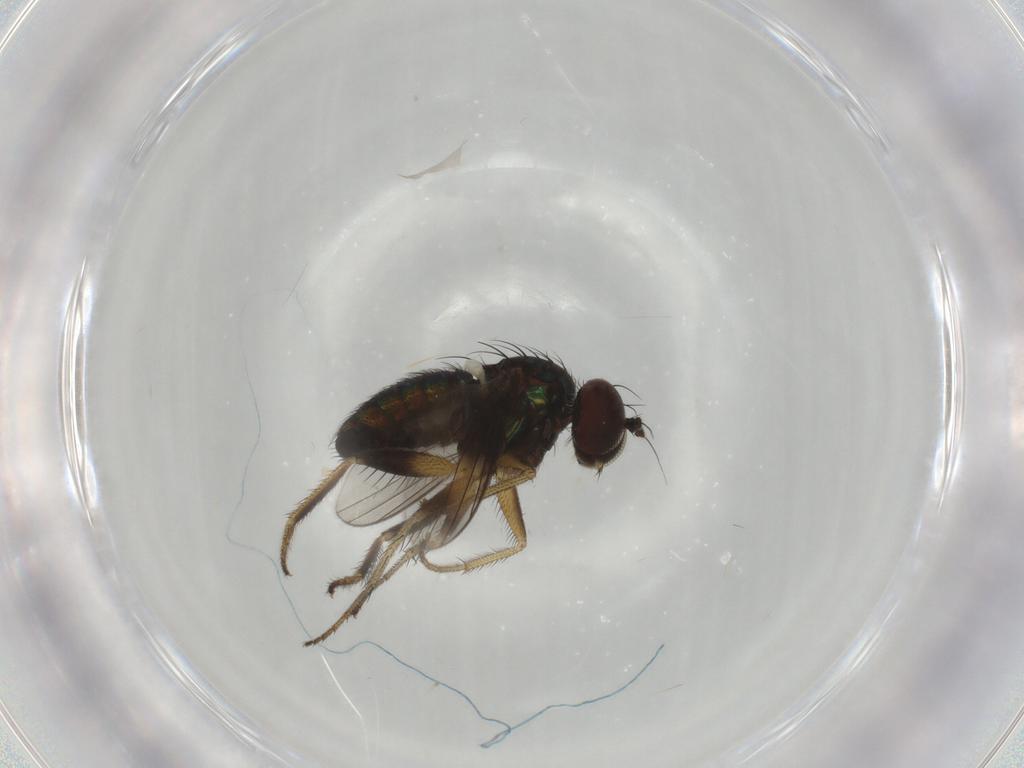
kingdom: Animalia
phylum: Arthropoda
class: Insecta
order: Diptera
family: Dolichopodidae
